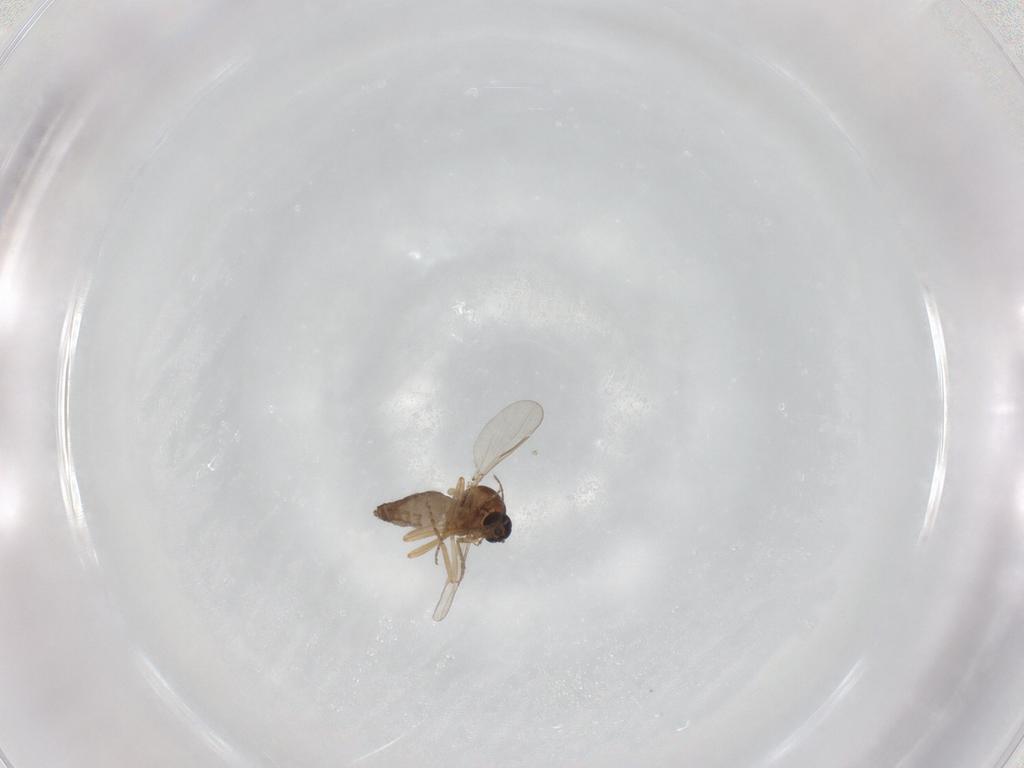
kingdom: Animalia
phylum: Arthropoda
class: Insecta
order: Diptera
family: Ceratopogonidae
